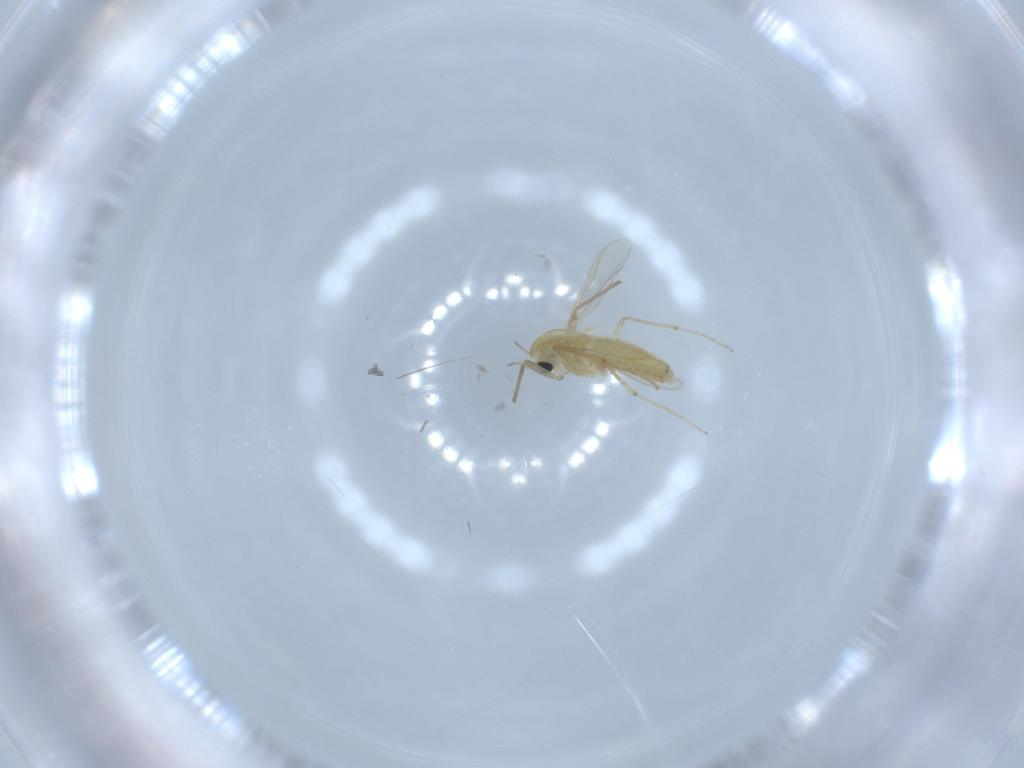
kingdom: Animalia
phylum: Arthropoda
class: Insecta
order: Diptera
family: Chironomidae
